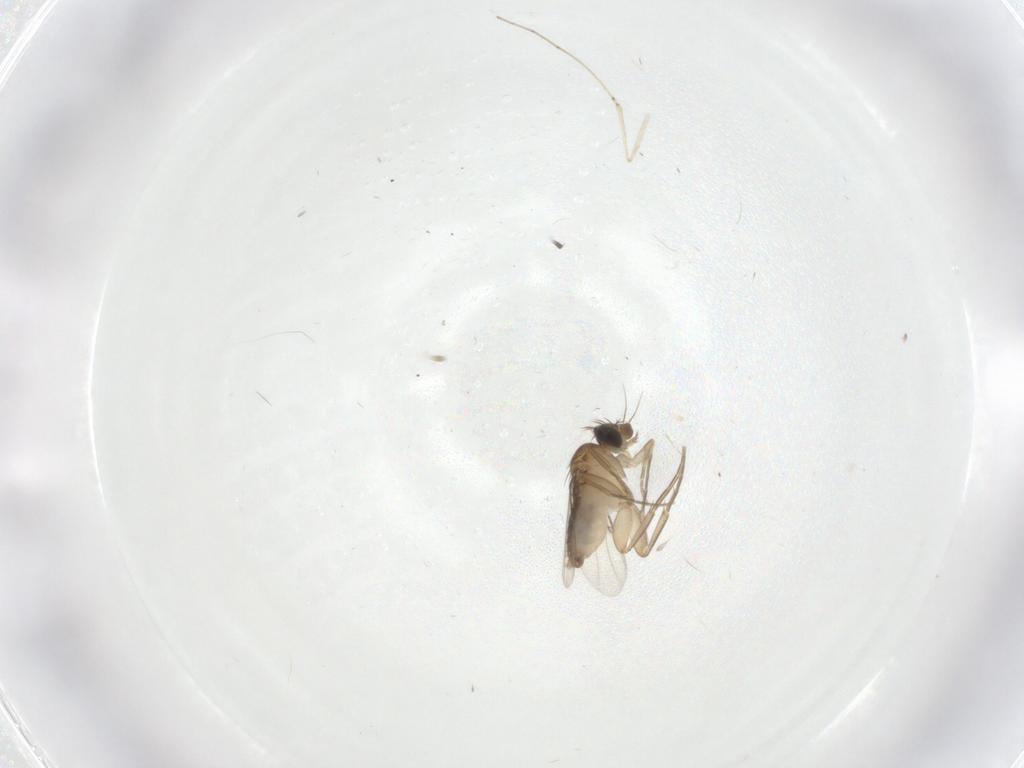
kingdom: Animalia
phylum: Arthropoda
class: Insecta
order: Diptera
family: Phoridae
